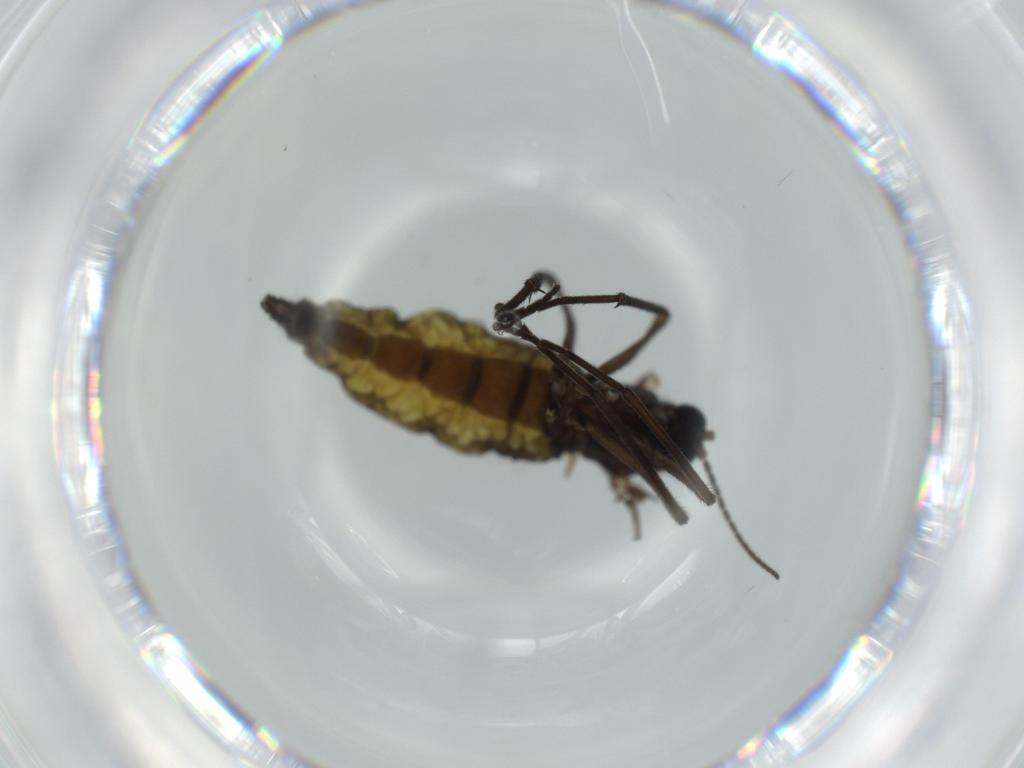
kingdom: Animalia
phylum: Arthropoda
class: Insecta
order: Diptera
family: Sciaridae
